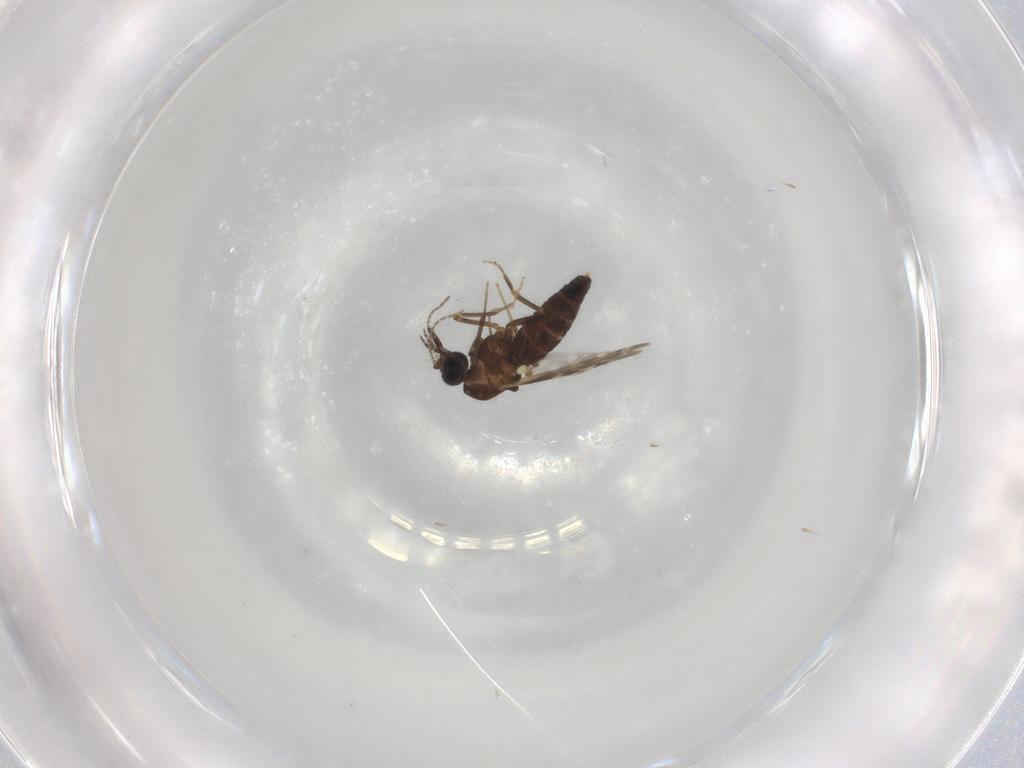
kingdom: Animalia
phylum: Arthropoda
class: Insecta
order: Diptera
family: Ceratopogonidae
